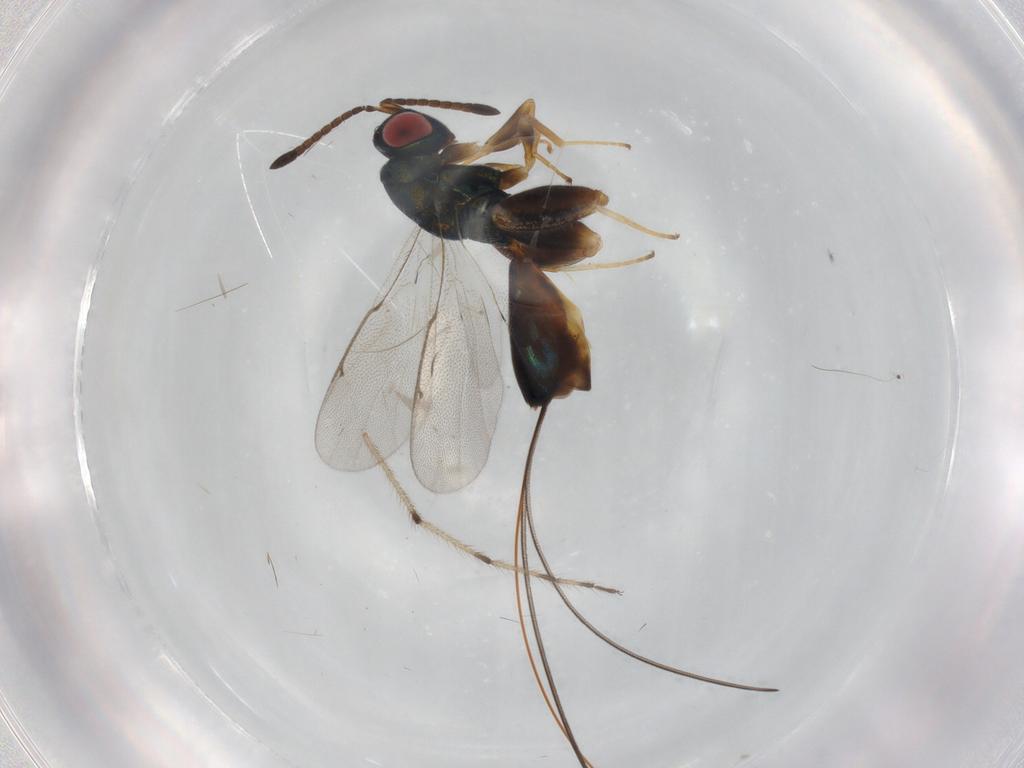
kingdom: Animalia
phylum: Arthropoda
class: Insecta
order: Hymenoptera
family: Torymidae
